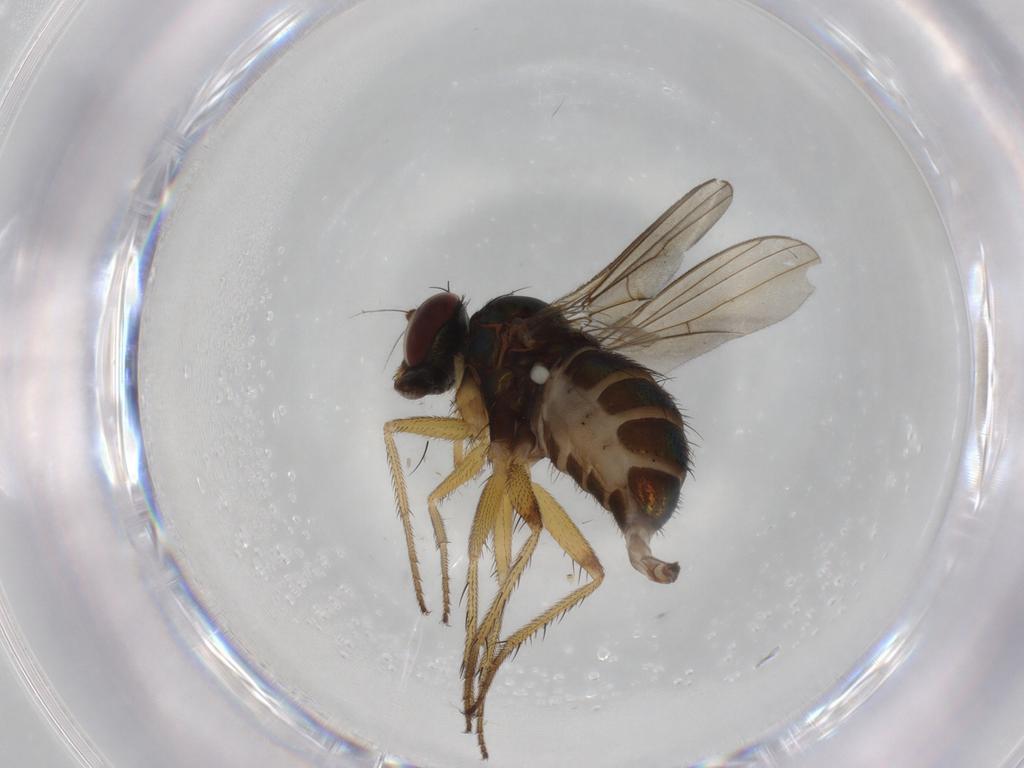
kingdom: Animalia
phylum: Arthropoda
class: Insecta
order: Diptera
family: Dolichopodidae
